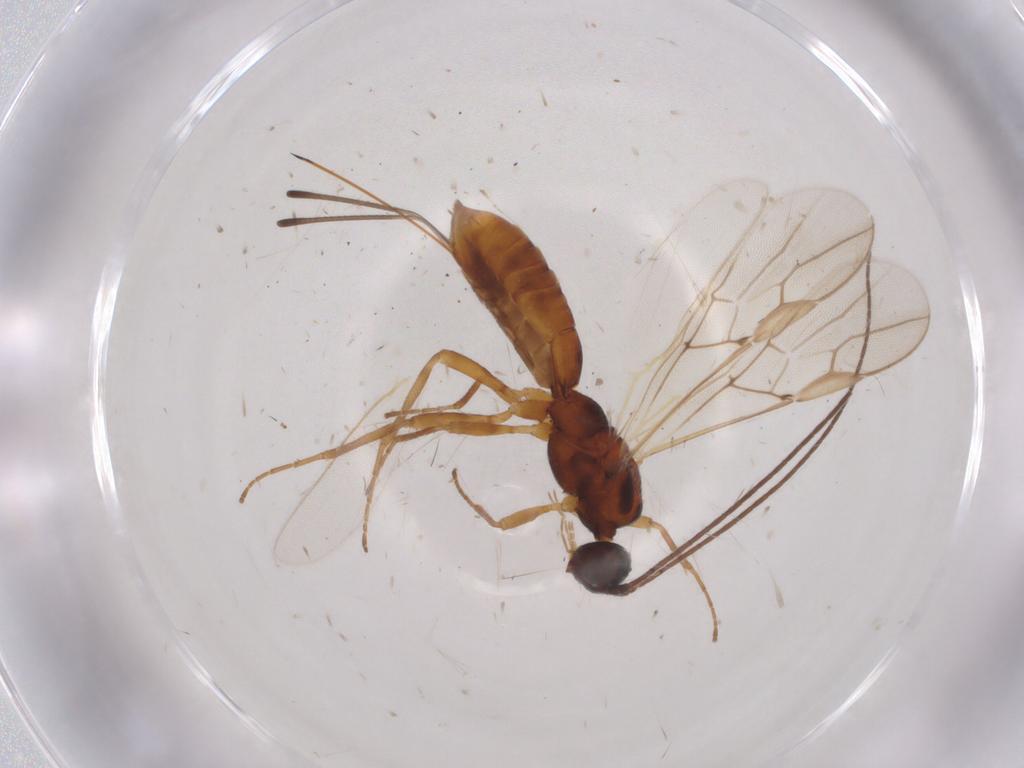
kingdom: Animalia
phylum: Arthropoda
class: Insecta
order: Hymenoptera
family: Braconidae
